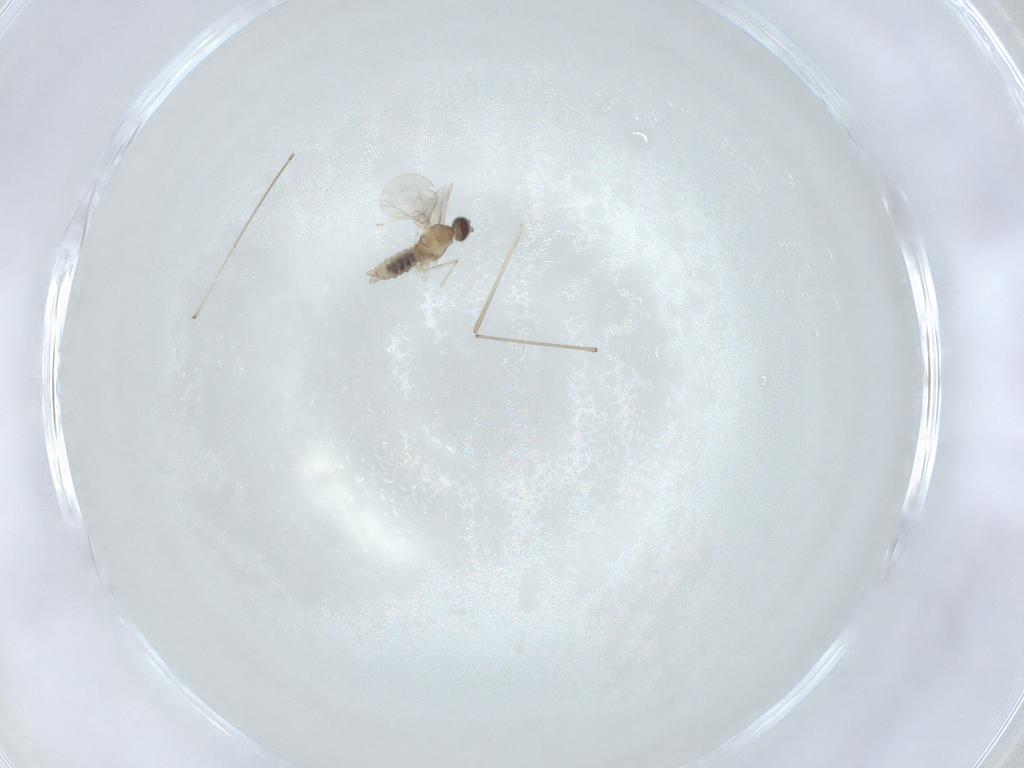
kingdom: Animalia
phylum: Arthropoda
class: Insecta
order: Diptera
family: Cecidomyiidae
